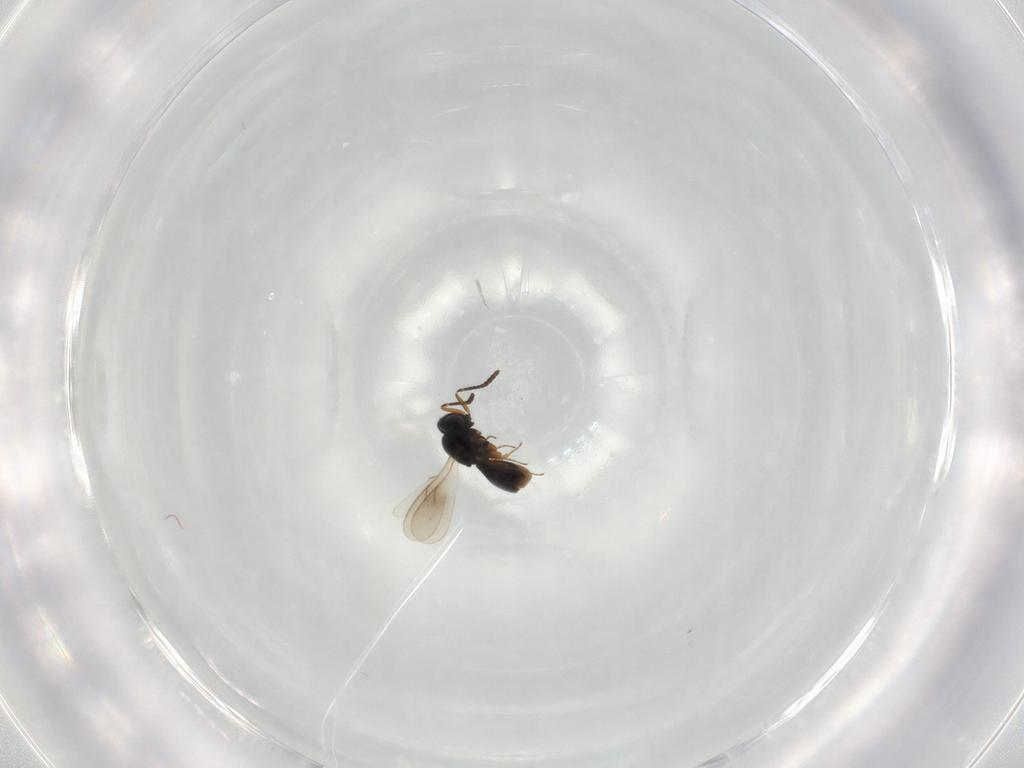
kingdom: Animalia
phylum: Arthropoda
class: Insecta
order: Hymenoptera
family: Scelionidae
